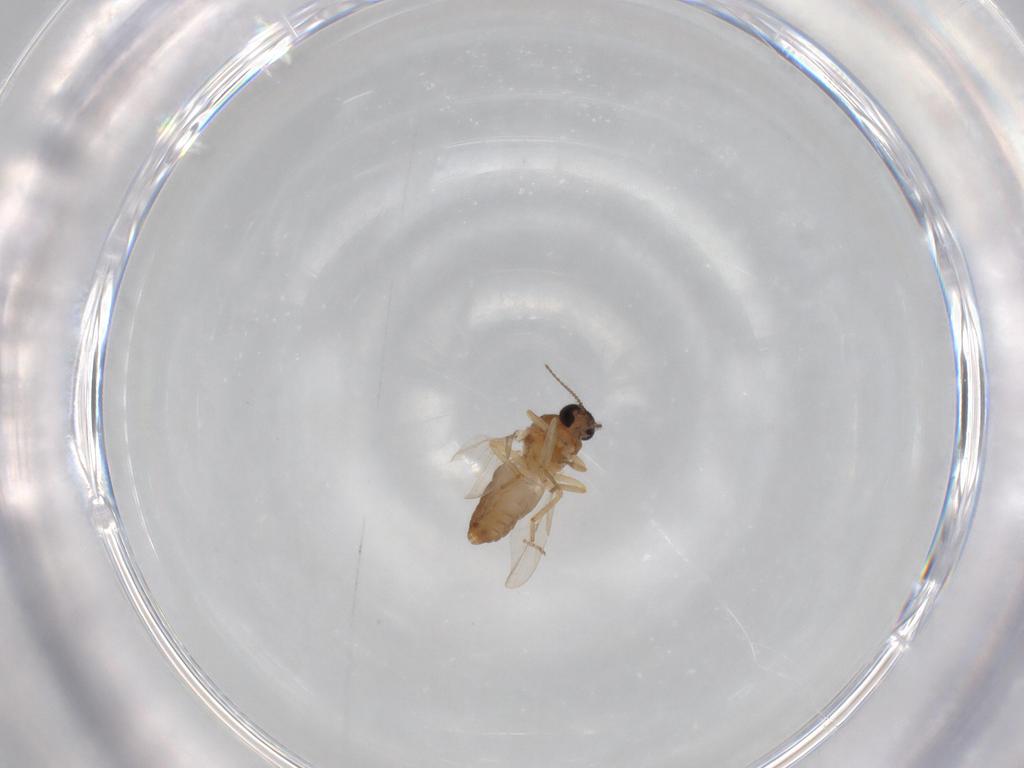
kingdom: Animalia
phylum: Arthropoda
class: Insecta
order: Diptera
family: Ceratopogonidae
